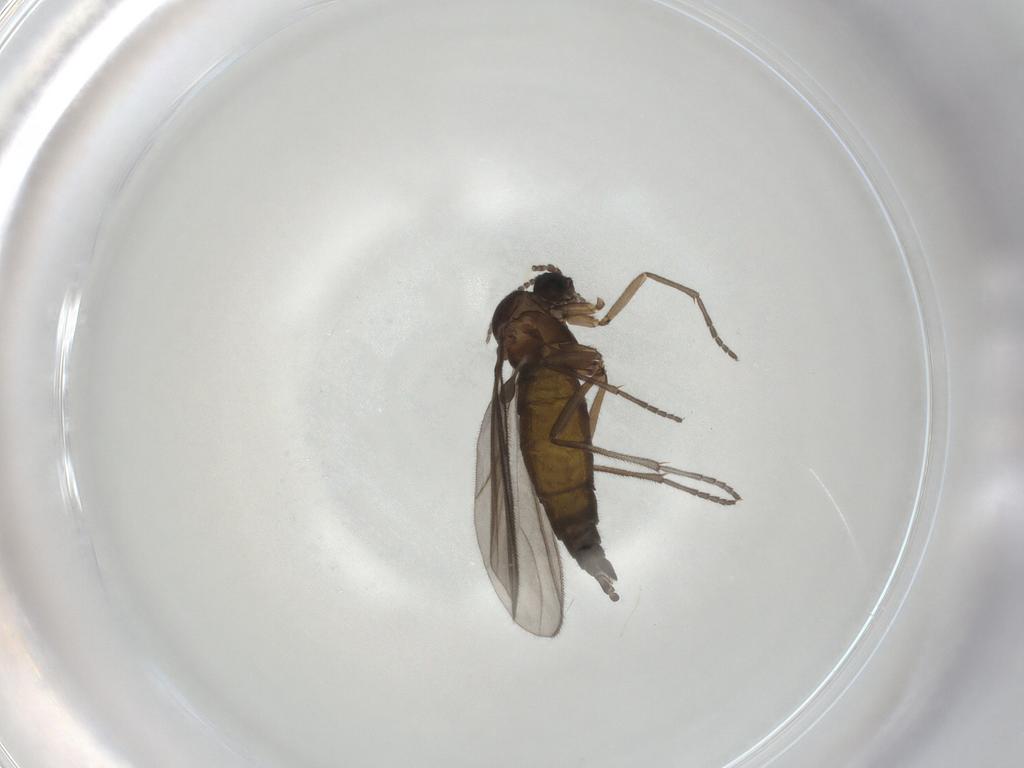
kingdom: Animalia
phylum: Arthropoda
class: Insecta
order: Diptera
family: Sciaridae
